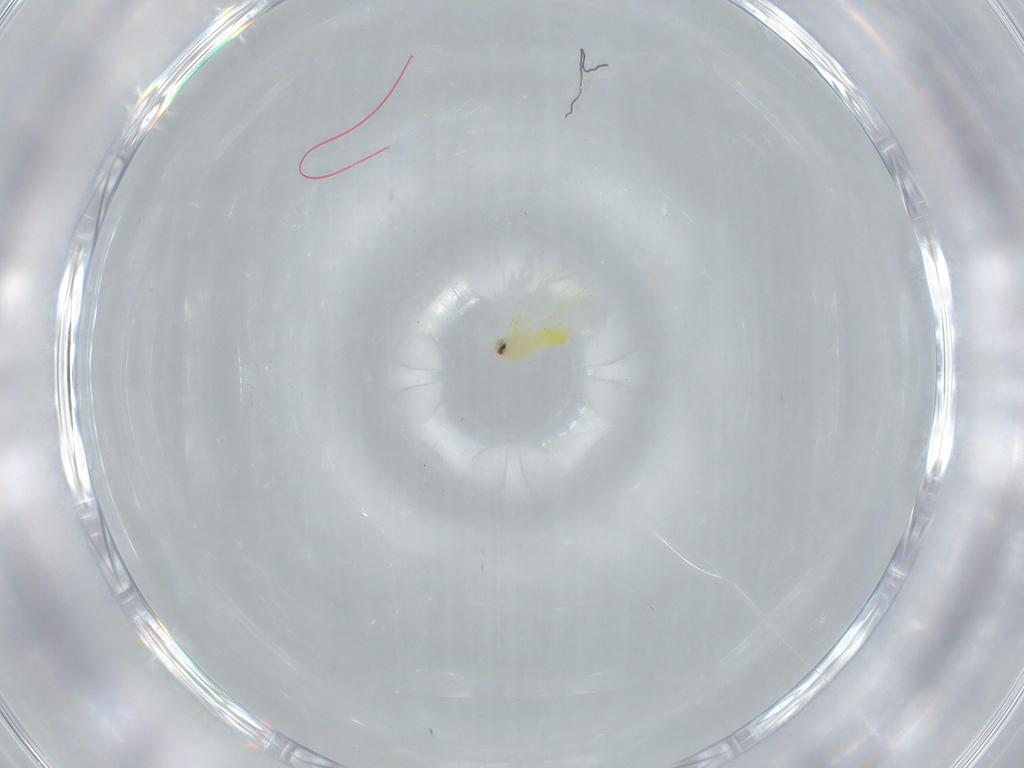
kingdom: Animalia
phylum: Arthropoda
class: Insecta
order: Hemiptera
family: Aleyrodidae
